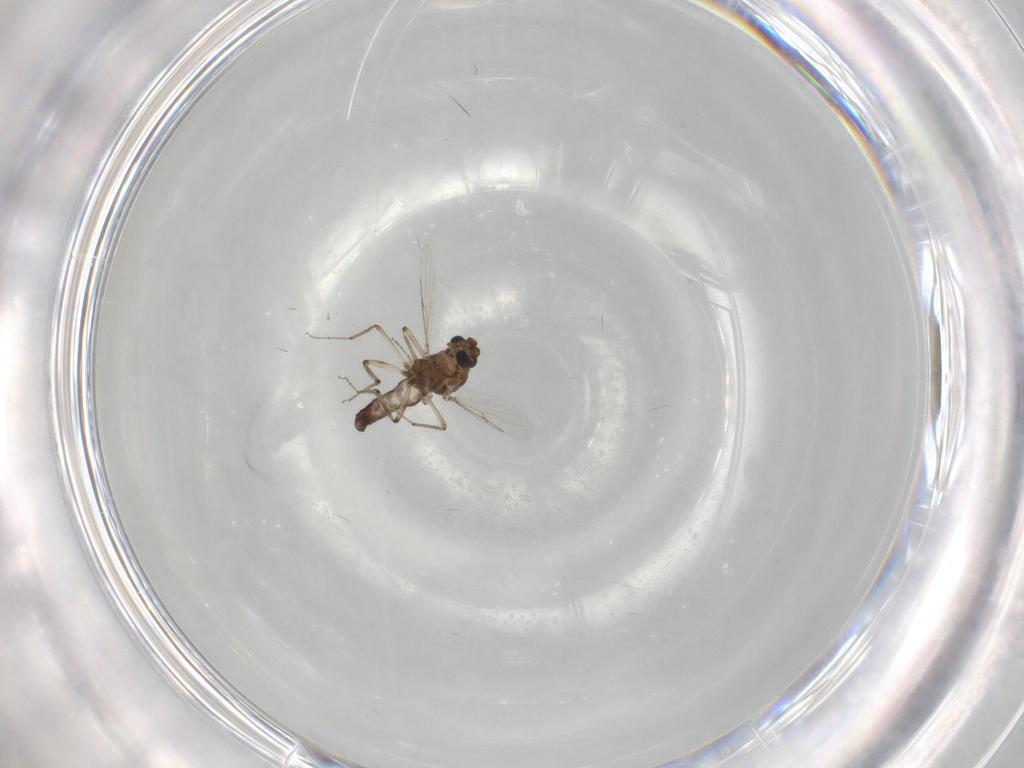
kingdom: Animalia
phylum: Arthropoda
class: Insecta
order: Diptera
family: Ceratopogonidae
